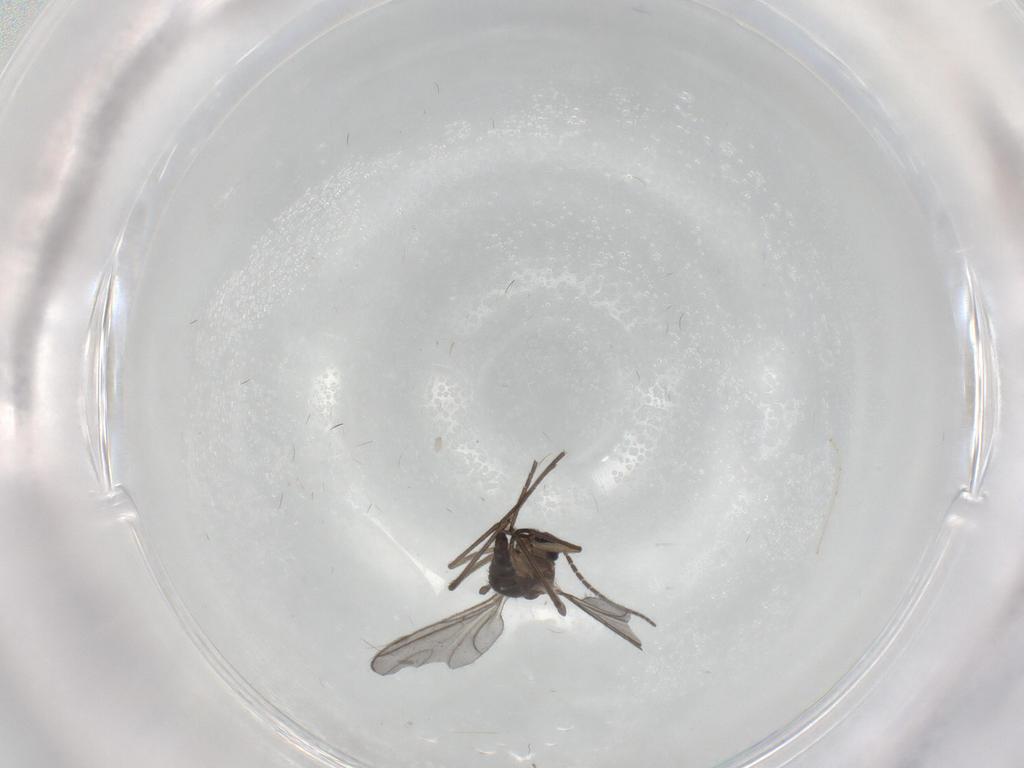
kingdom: Animalia
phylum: Arthropoda
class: Insecta
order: Diptera
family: Sciaridae
